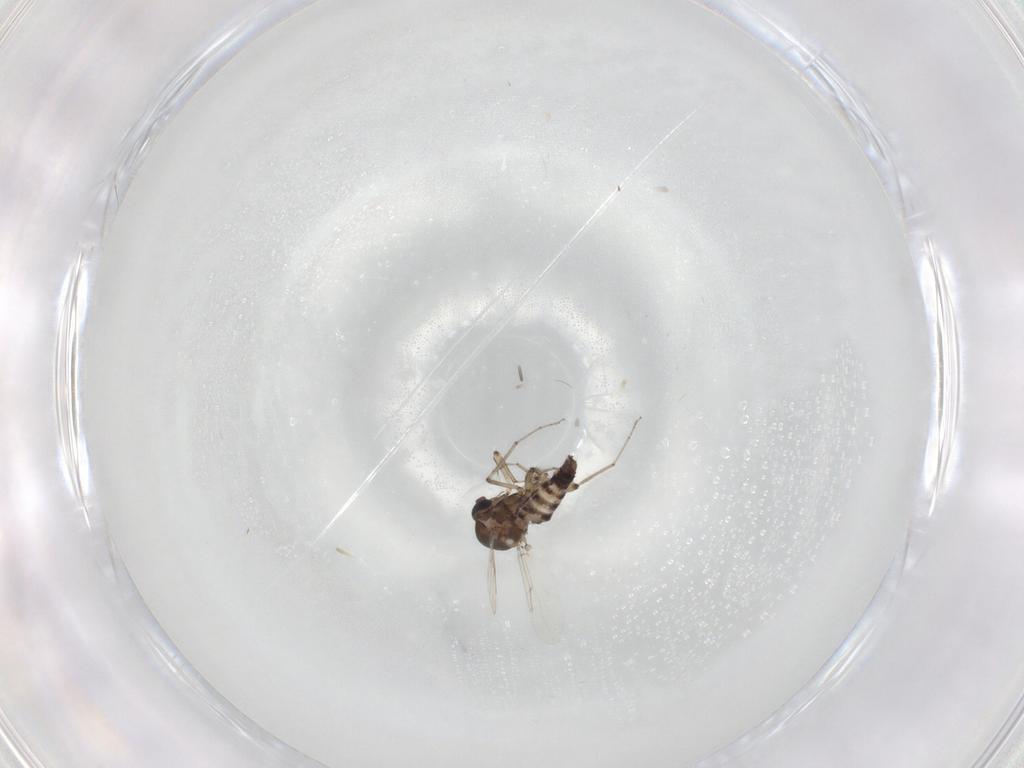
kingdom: Animalia
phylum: Arthropoda
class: Insecta
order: Diptera
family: Ceratopogonidae
